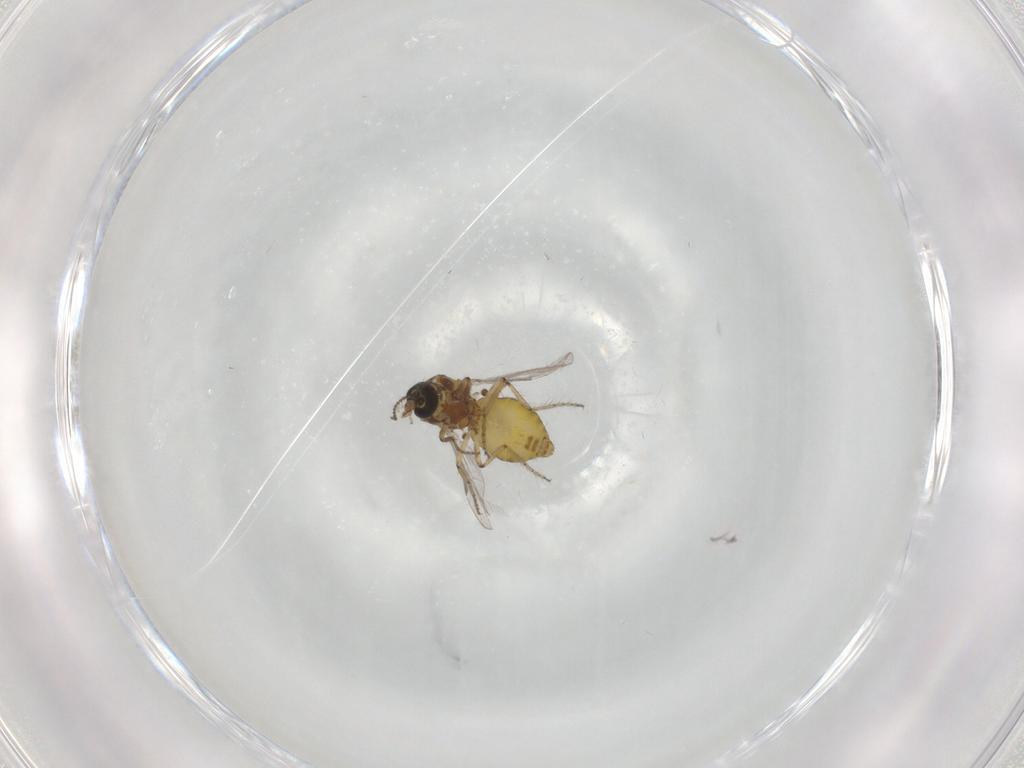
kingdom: Animalia
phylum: Arthropoda
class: Insecta
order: Diptera
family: Ceratopogonidae
